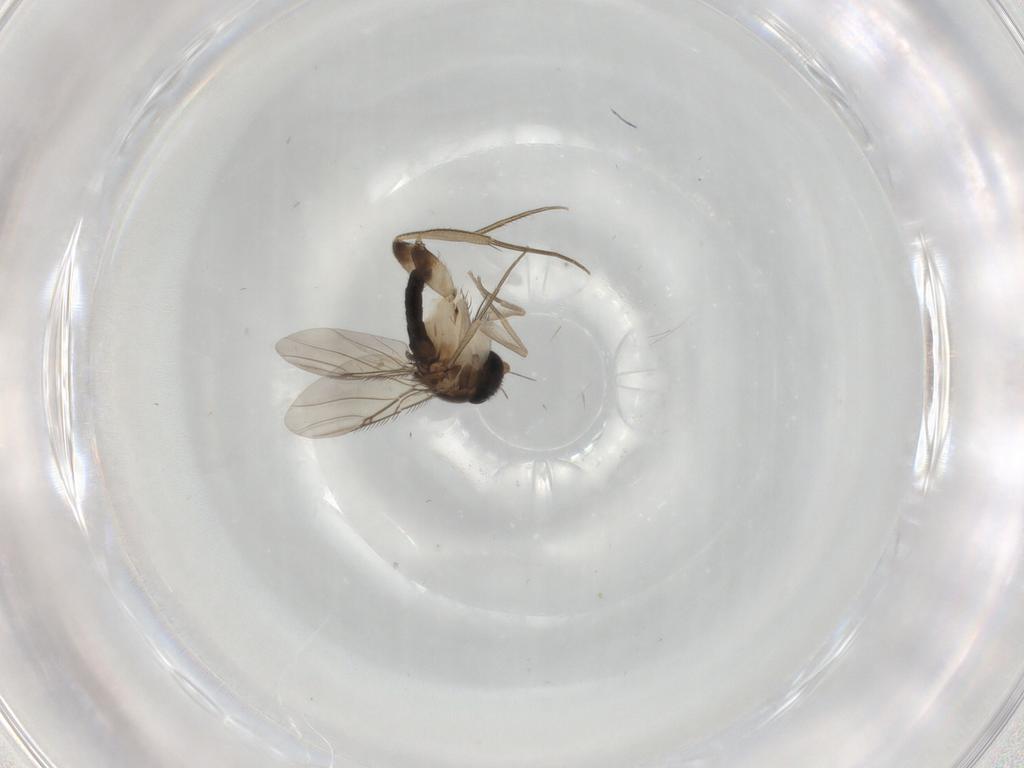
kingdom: Animalia
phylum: Arthropoda
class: Insecta
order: Diptera
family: Phoridae
